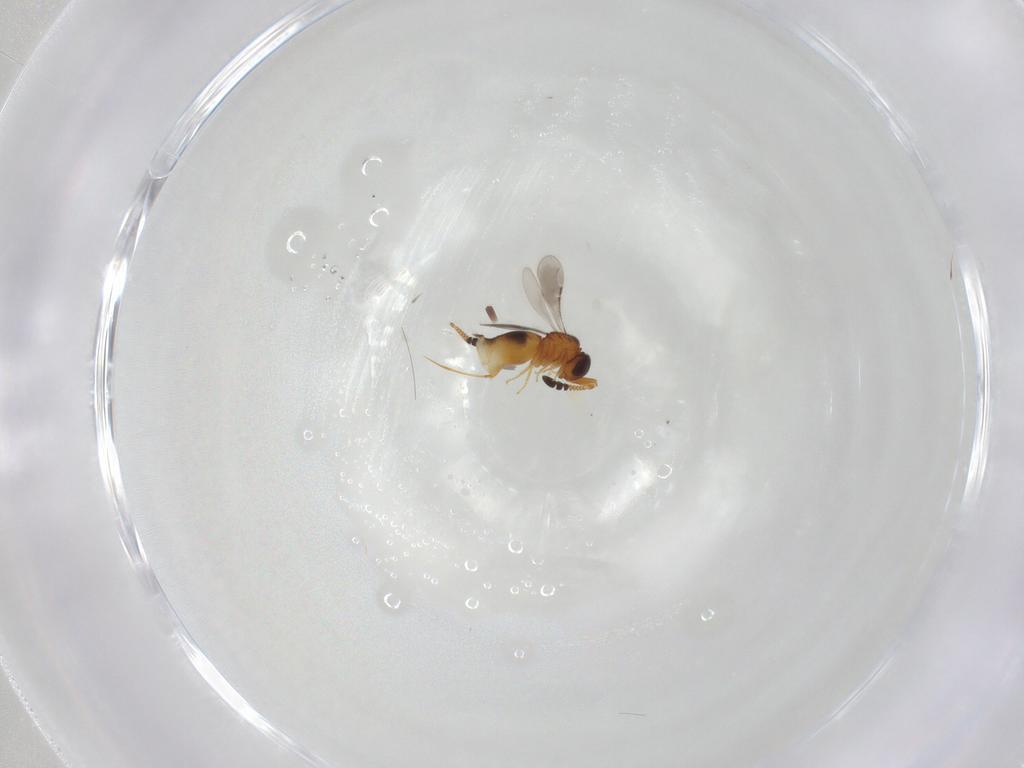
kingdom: Animalia
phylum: Arthropoda
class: Insecta
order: Hymenoptera
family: Ceraphronidae
